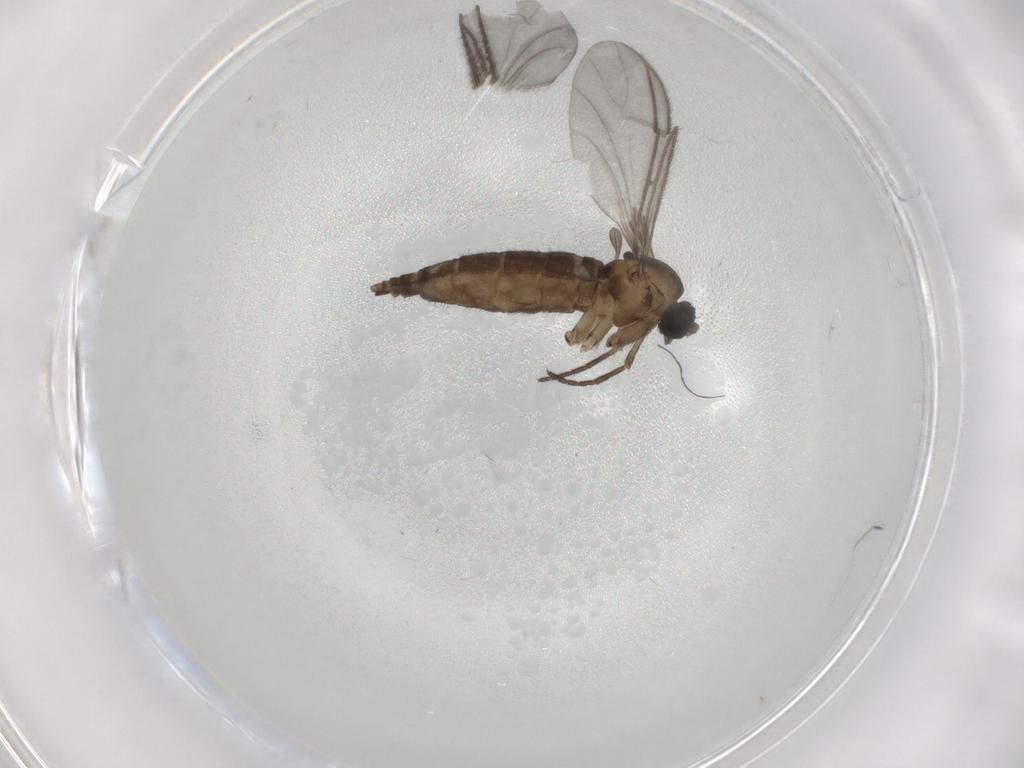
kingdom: Animalia
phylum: Arthropoda
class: Insecta
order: Diptera
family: Sciaridae
